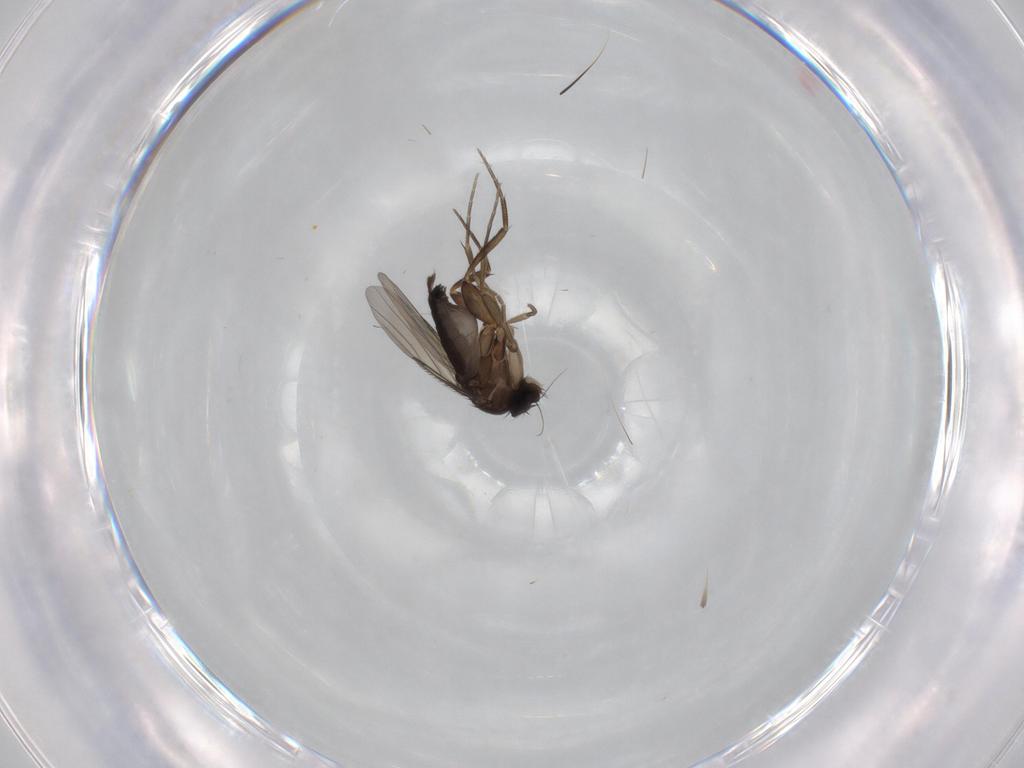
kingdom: Animalia
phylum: Arthropoda
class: Insecta
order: Diptera
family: Phoridae
